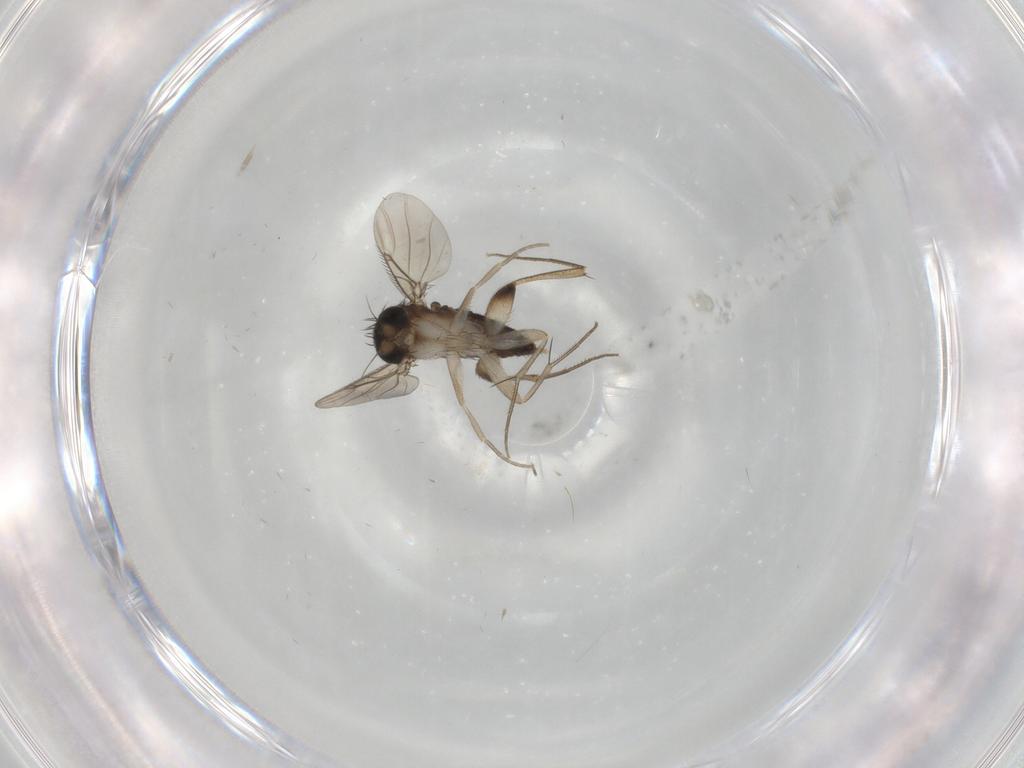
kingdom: Animalia
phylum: Arthropoda
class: Insecta
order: Diptera
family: Phoridae
